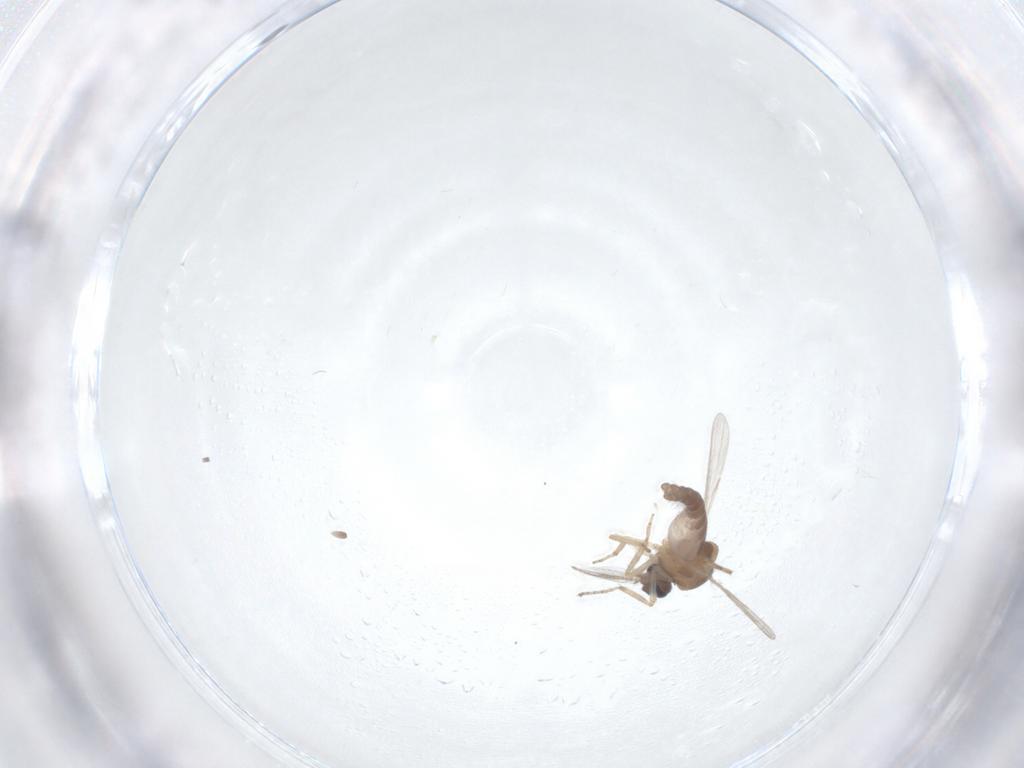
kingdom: Animalia
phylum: Arthropoda
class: Insecta
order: Diptera
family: Ceratopogonidae
